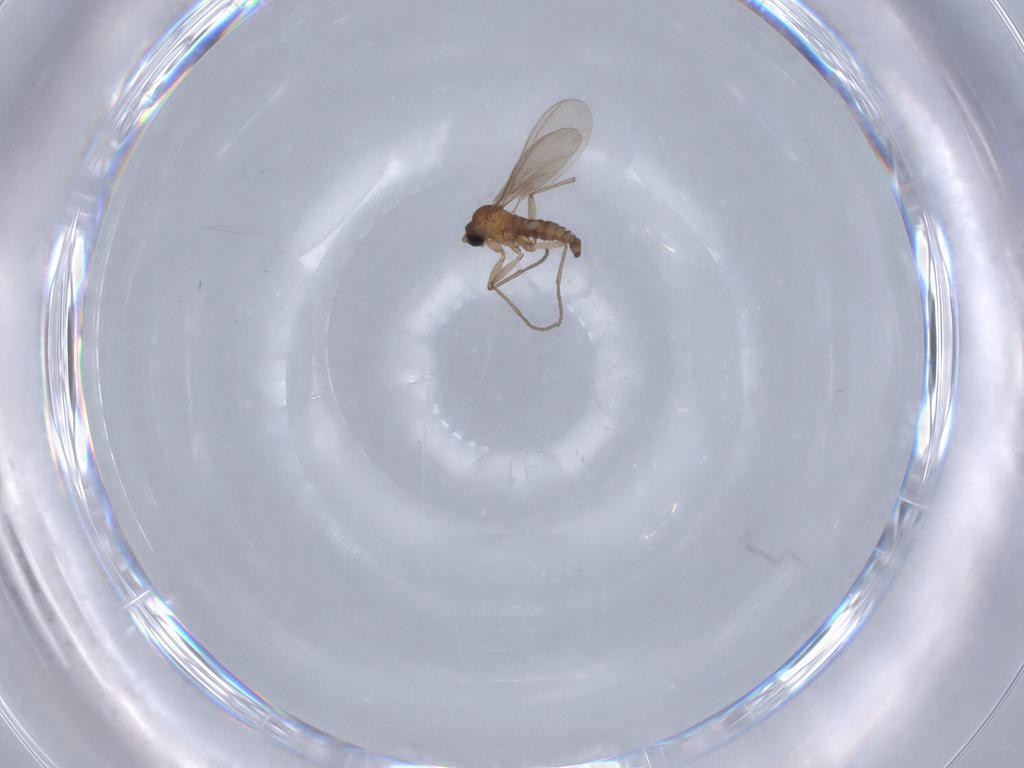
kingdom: Animalia
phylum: Arthropoda
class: Insecta
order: Diptera
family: Sciaridae
